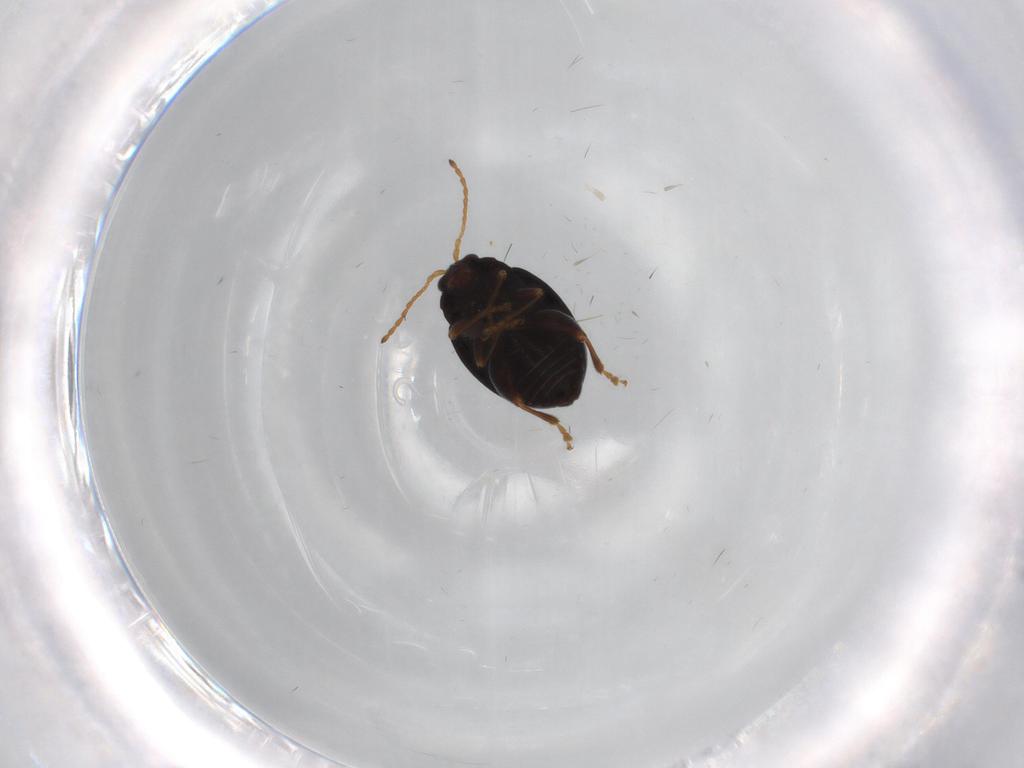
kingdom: Animalia
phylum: Arthropoda
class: Insecta
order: Coleoptera
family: Chrysomelidae
